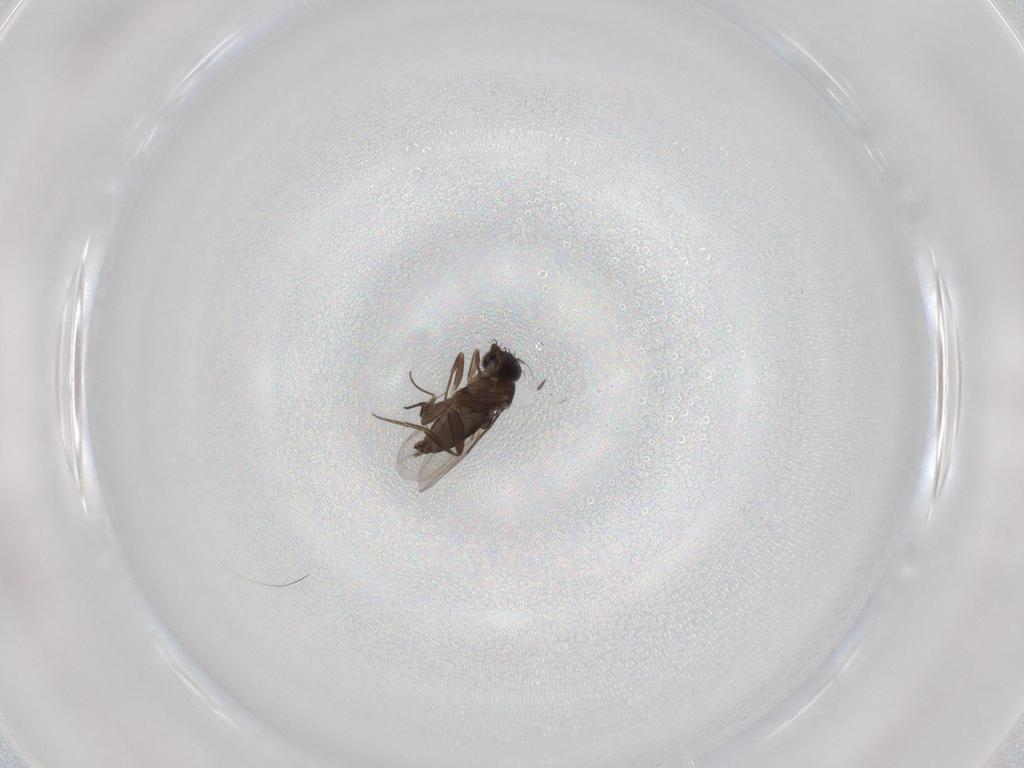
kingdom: Animalia
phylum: Arthropoda
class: Insecta
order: Diptera
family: Phoridae
